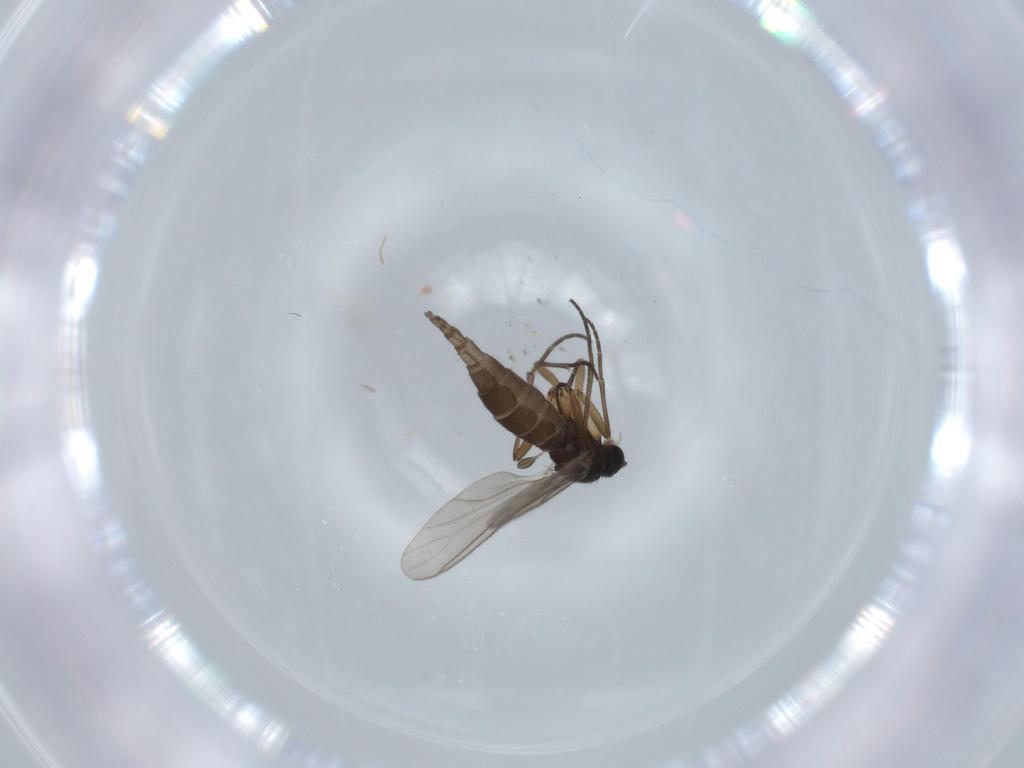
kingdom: Animalia
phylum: Arthropoda
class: Insecta
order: Diptera
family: Sciaridae
